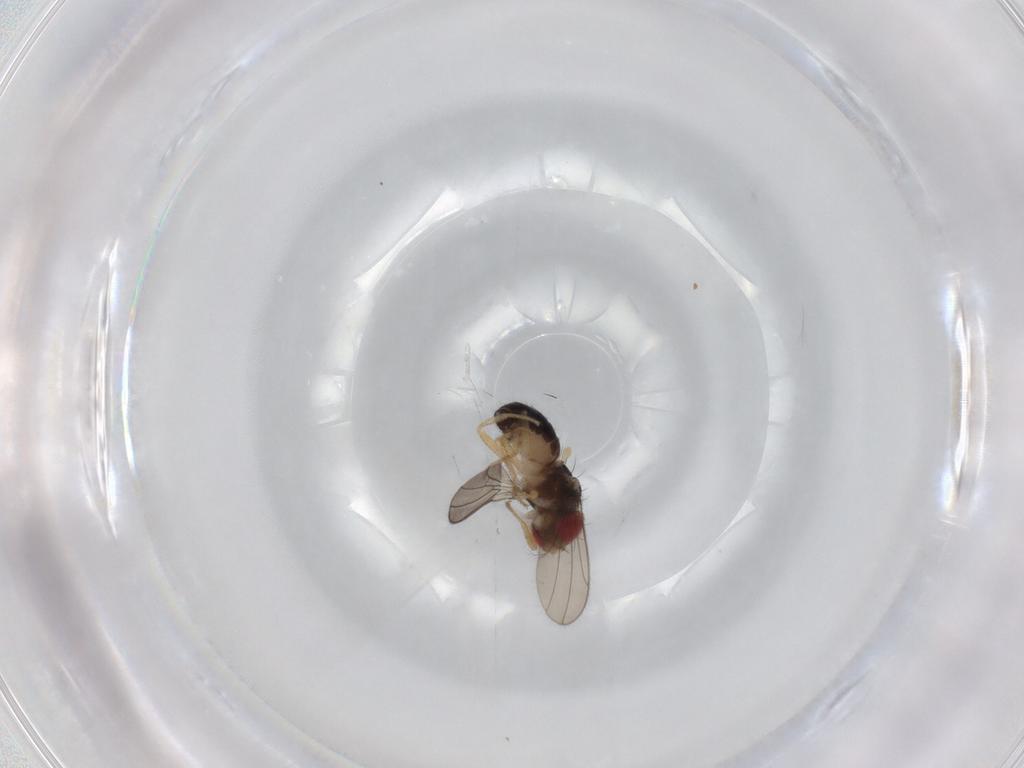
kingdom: Animalia
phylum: Arthropoda
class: Insecta
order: Diptera
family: Drosophilidae
